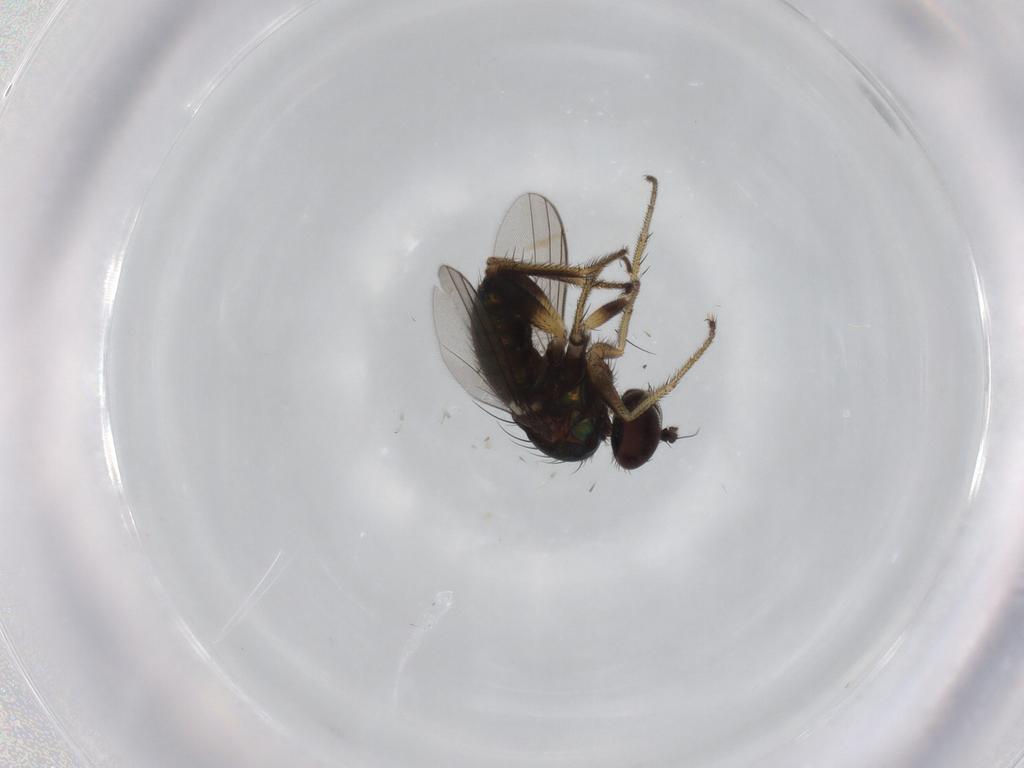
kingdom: Animalia
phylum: Arthropoda
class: Insecta
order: Diptera
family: Dolichopodidae
